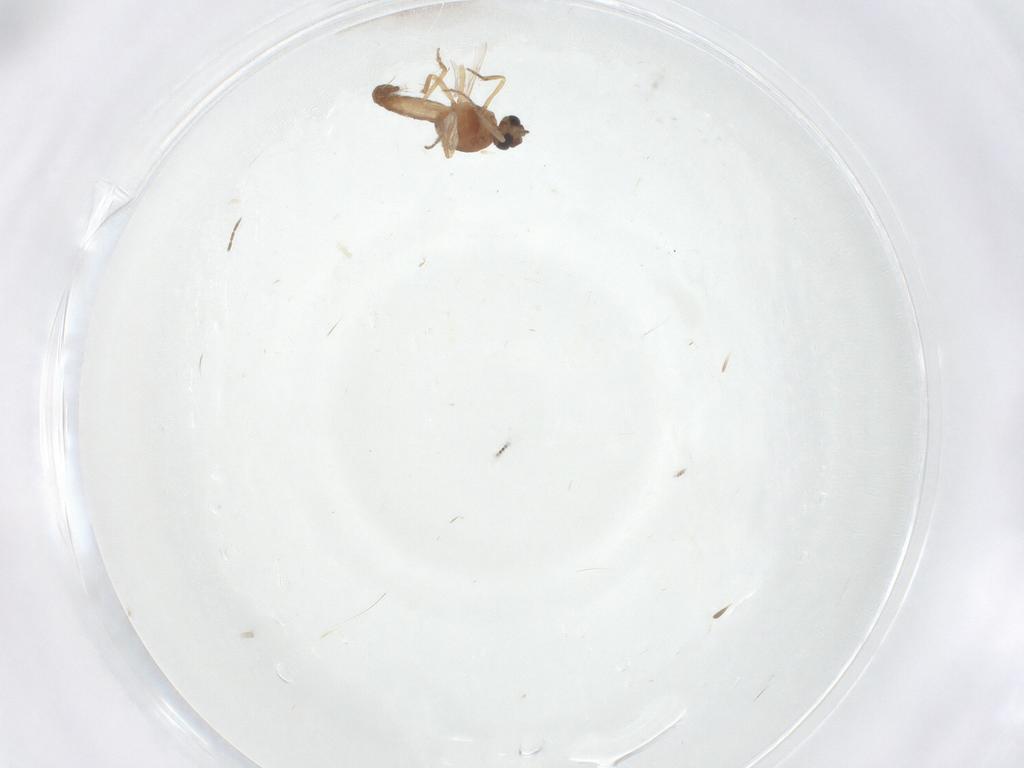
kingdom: Animalia
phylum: Arthropoda
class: Insecta
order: Diptera
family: Ceratopogonidae
